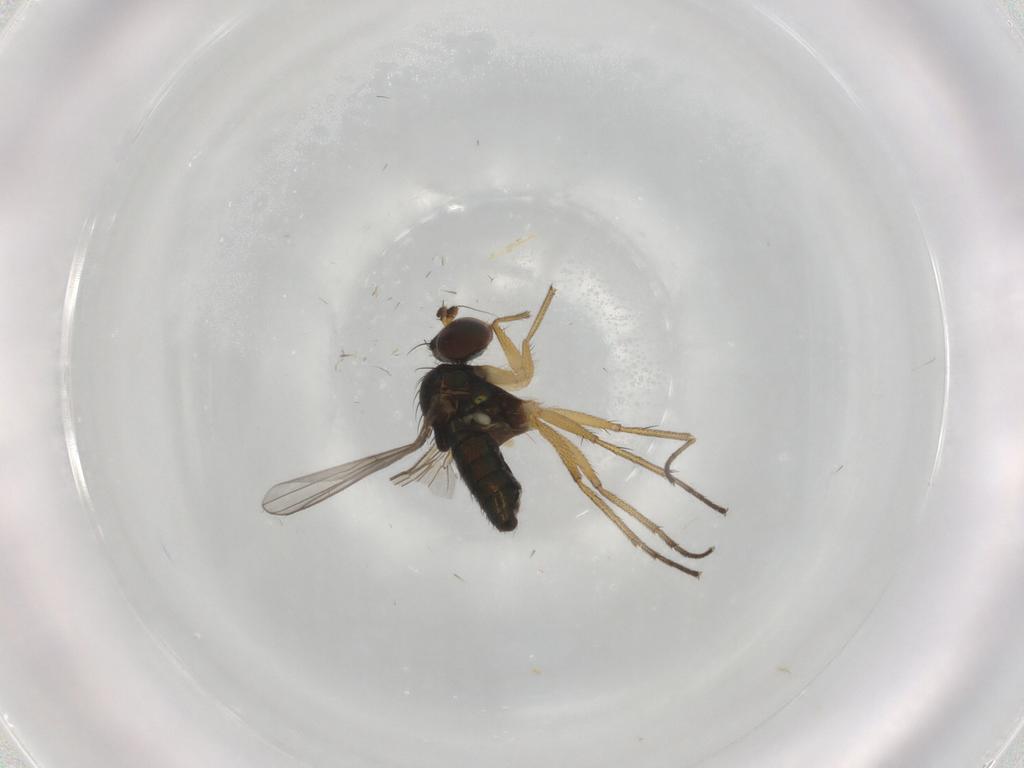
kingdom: Animalia
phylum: Arthropoda
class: Insecta
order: Diptera
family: Dolichopodidae
